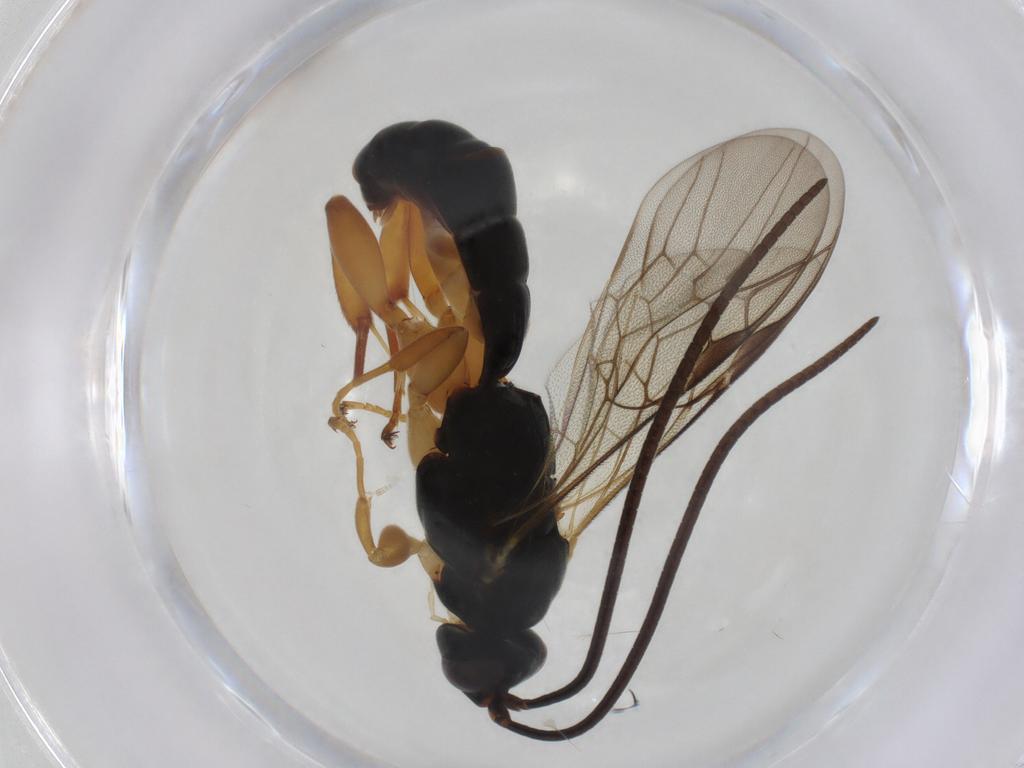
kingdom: Animalia
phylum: Arthropoda
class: Insecta
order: Hymenoptera
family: Ichneumonidae
